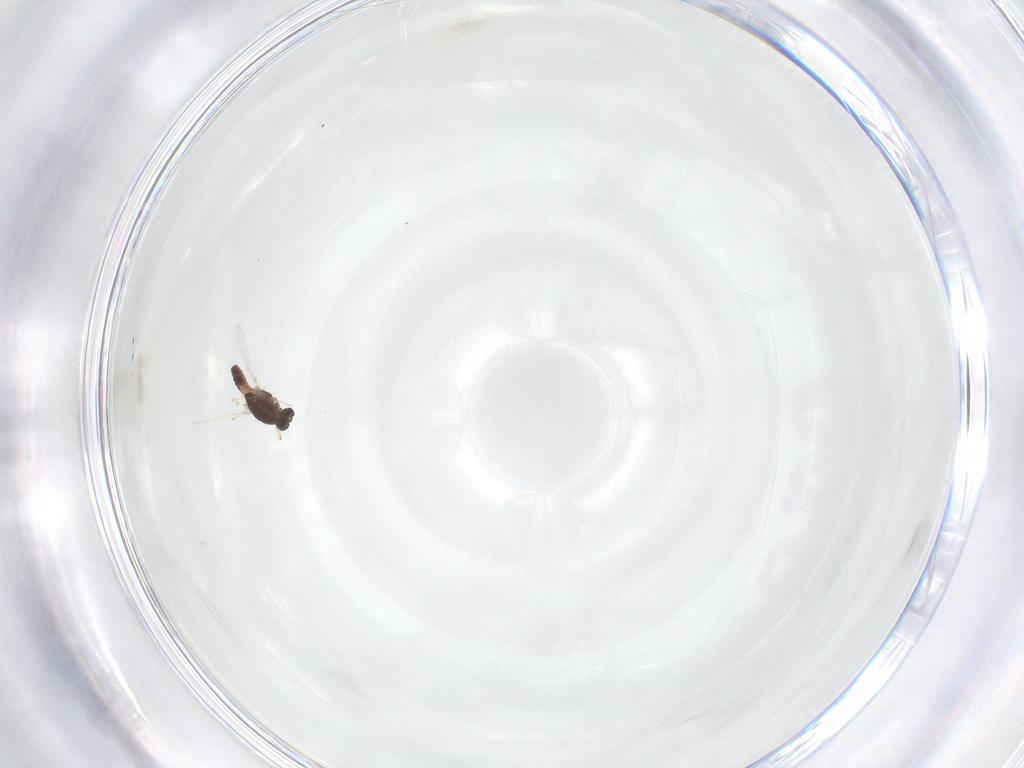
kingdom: Animalia
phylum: Arthropoda
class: Insecta
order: Diptera
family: Chironomidae
